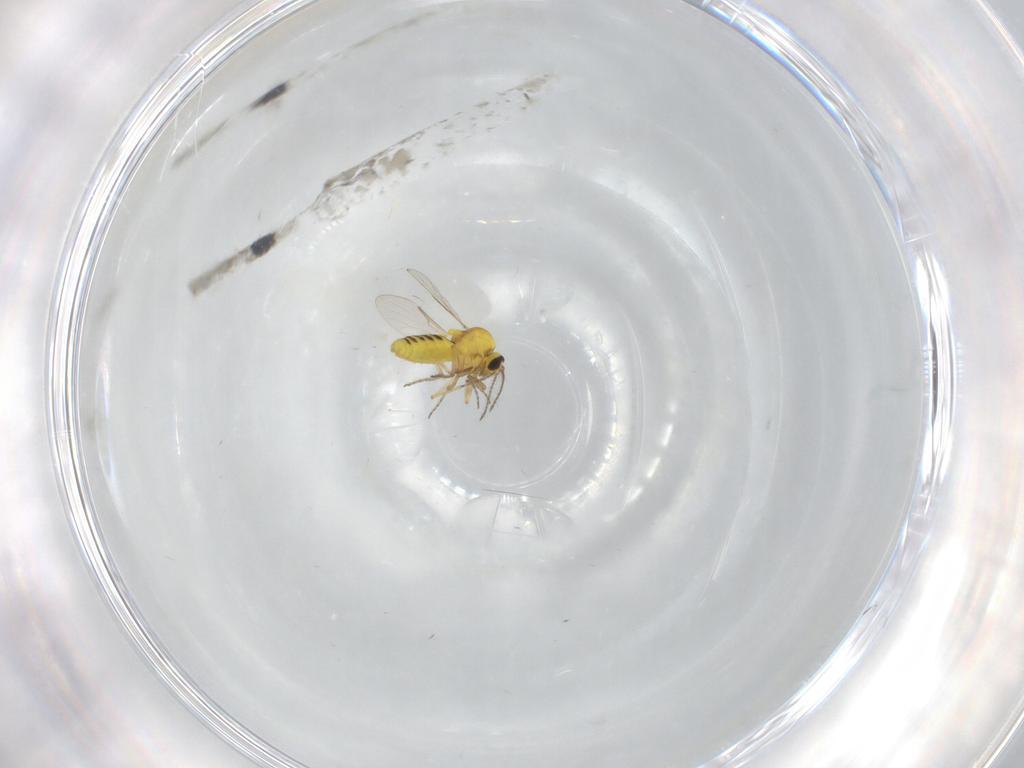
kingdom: Animalia
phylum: Arthropoda
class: Insecta
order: Diptera
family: Ceratopogonidae
